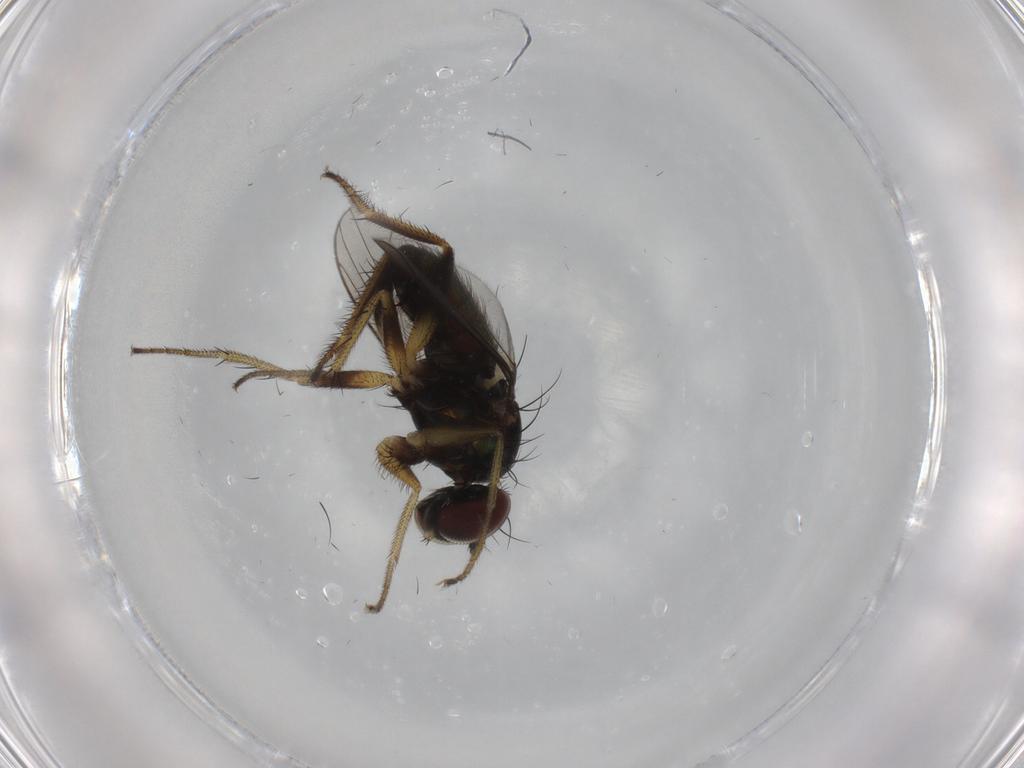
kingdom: Animalia
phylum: Arthropoda
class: Insecta
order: Diptera
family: Dolichopodidae
